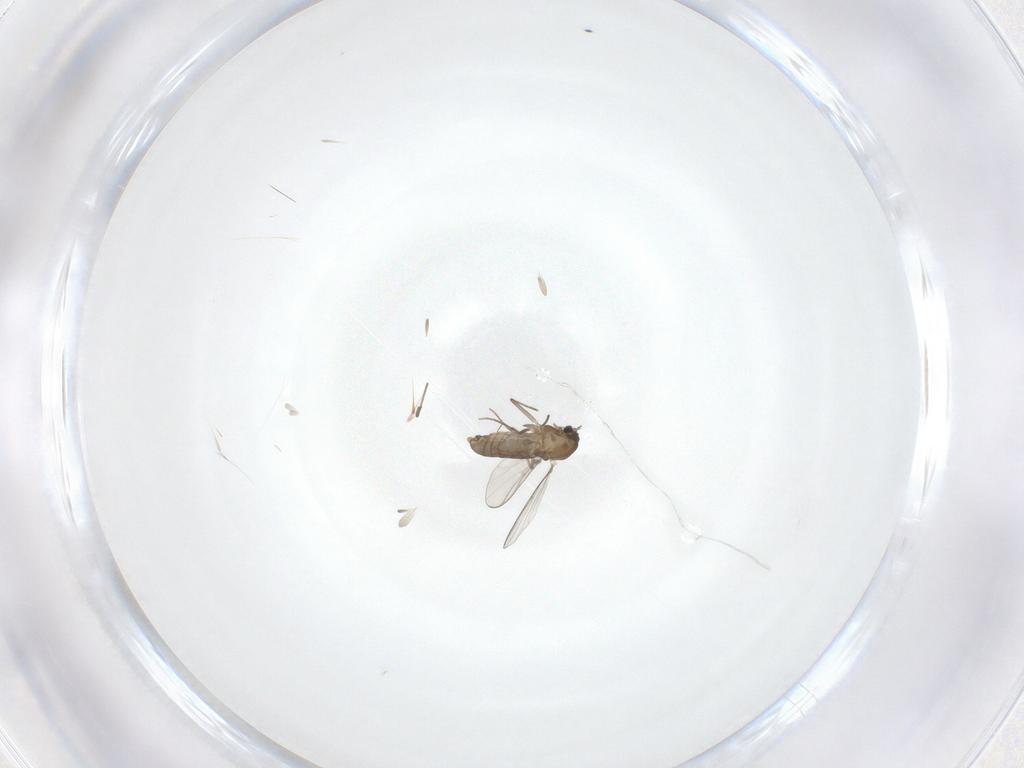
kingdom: Animalia
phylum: Arthropoda
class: Insecta
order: Diptera
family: Chironomidae
